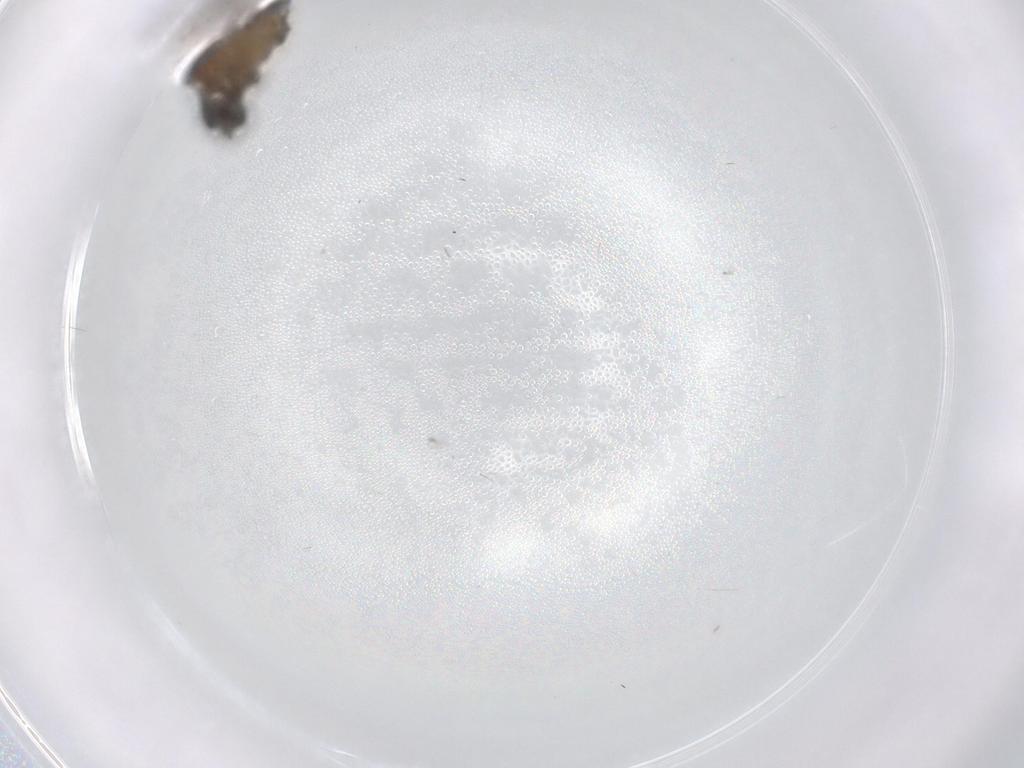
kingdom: Animalia
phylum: Arthropoda
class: Insecta
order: Diptera
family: Limoniidae
